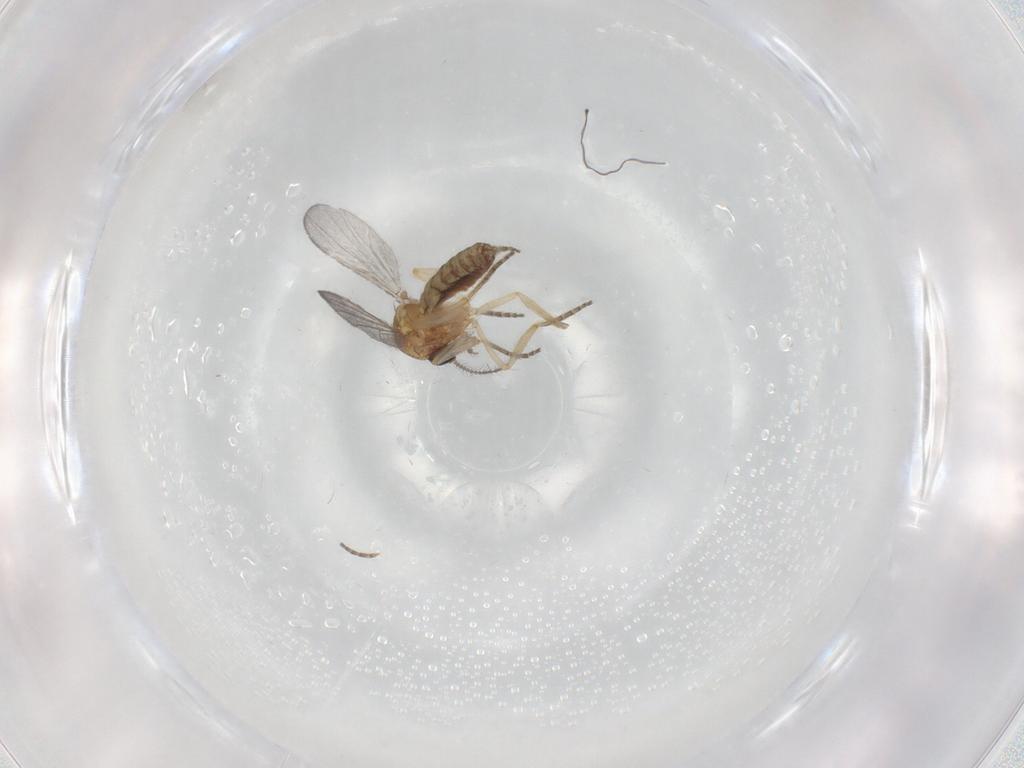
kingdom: Animalia
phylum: Arthropoda
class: Insecta
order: Diptera
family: Ceratopogonidae
